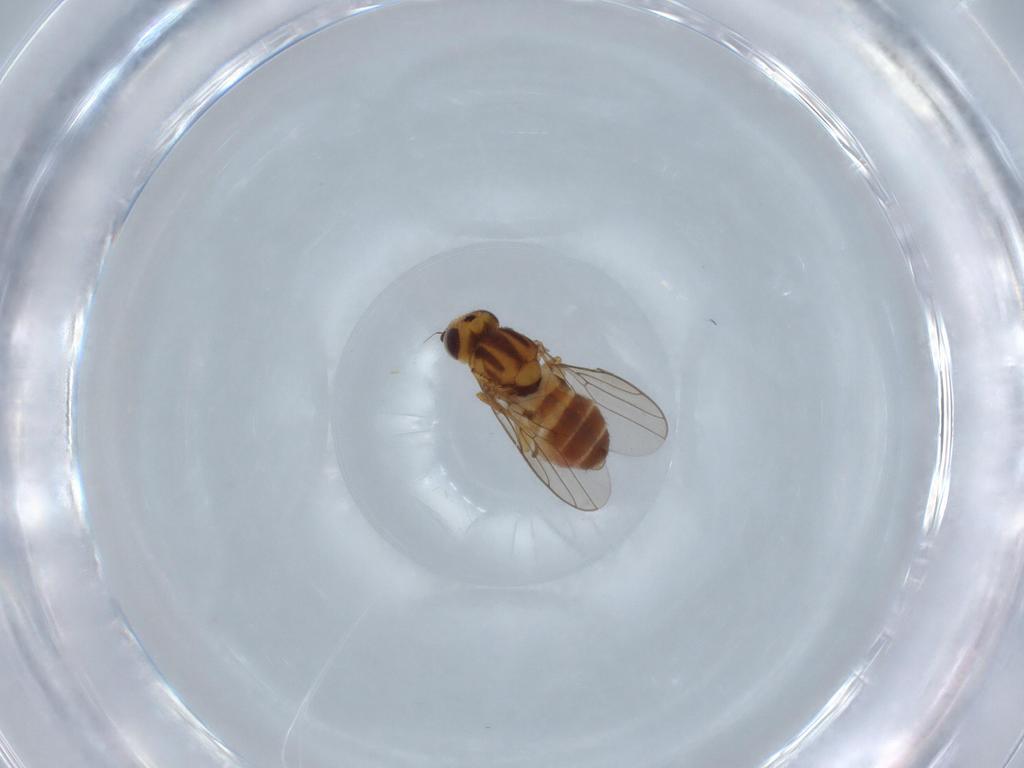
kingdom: Animalia
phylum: Arthropoda
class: Insecta
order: Diptera
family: Chloropidae
